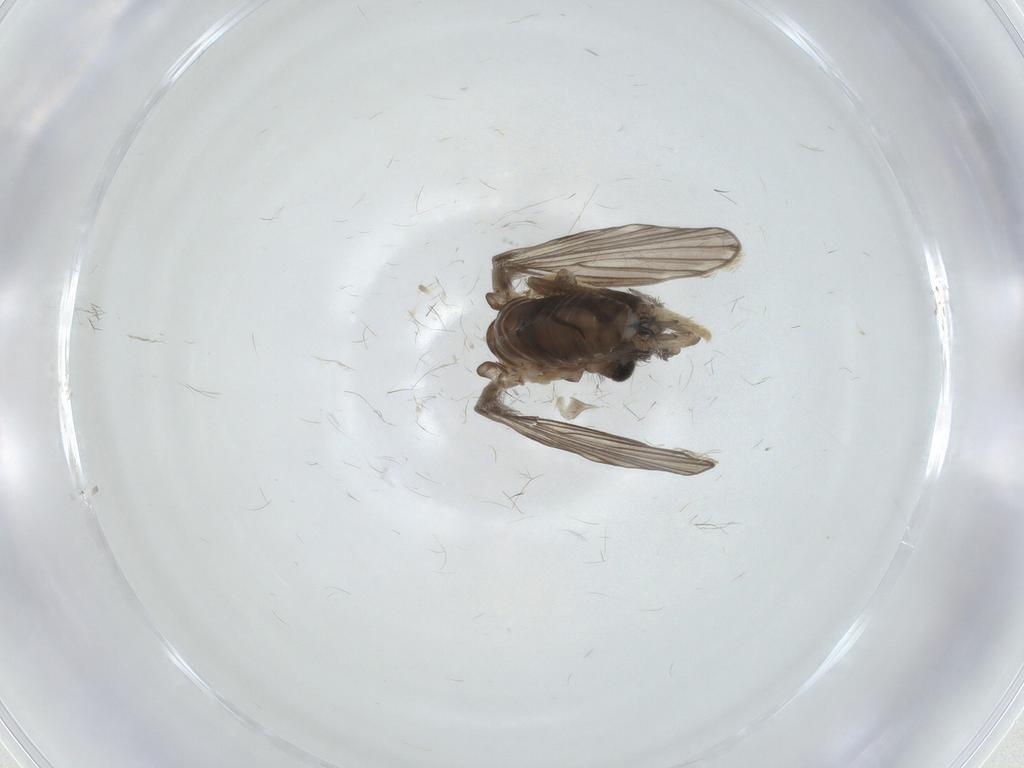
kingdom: Animalia
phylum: Arthropoda
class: Insecta
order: Diptera
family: Psychodidae
